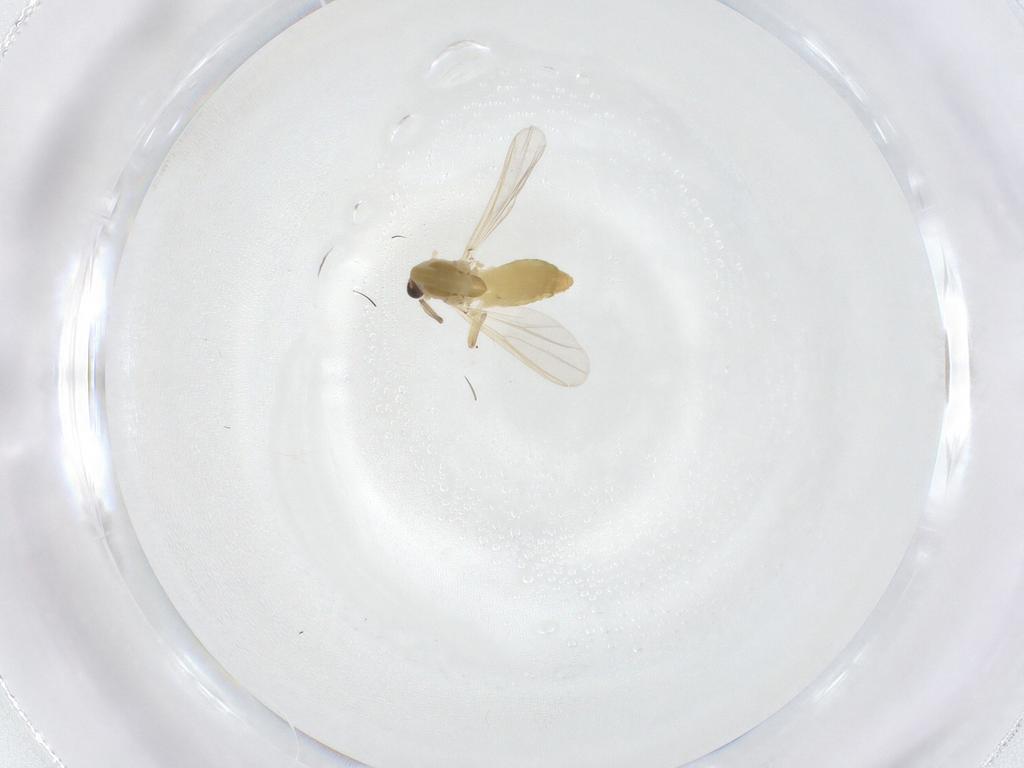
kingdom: Animalia
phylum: Arthropoda
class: Insecta
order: Diptera
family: Chironomidae
